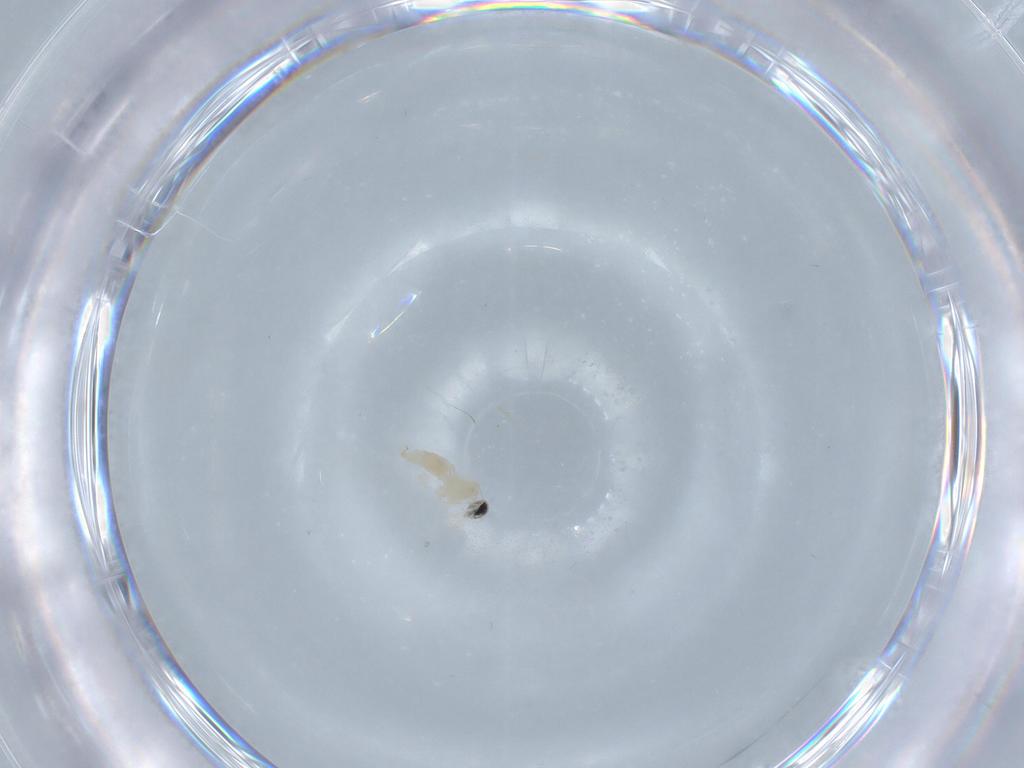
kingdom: Animalia
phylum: Arthropoda
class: Insecta
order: Diptera
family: Cecidomyiidae
